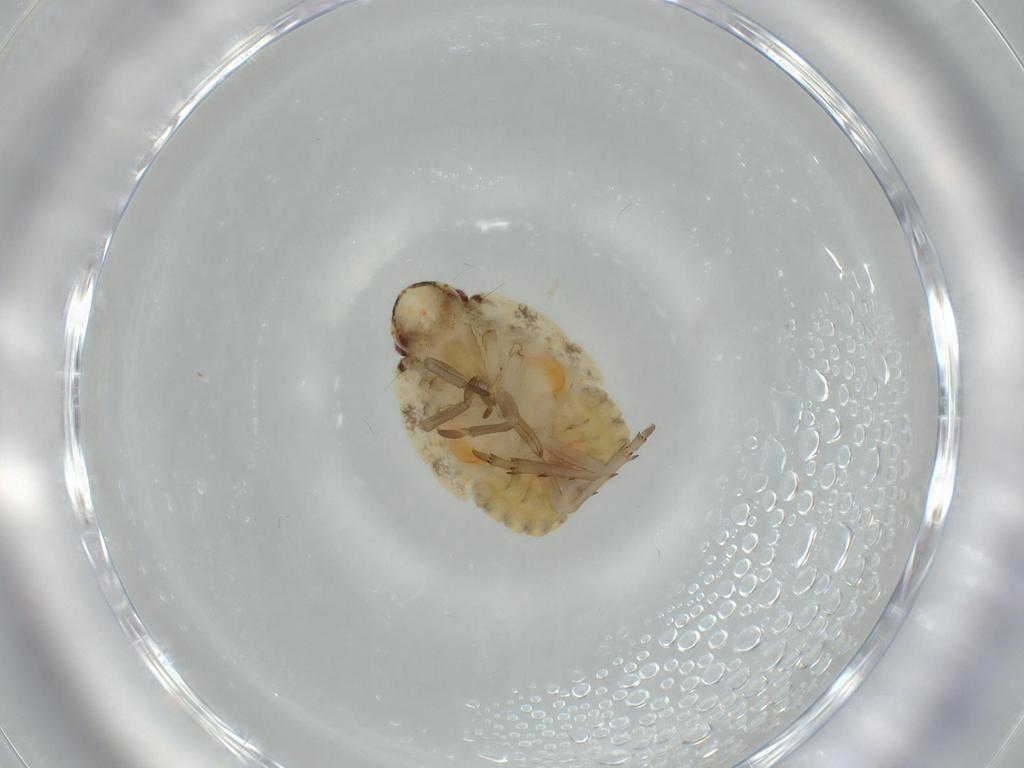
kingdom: Animalia
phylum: Arthropoda
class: Insecta
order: Hemiptera
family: Flatidae
